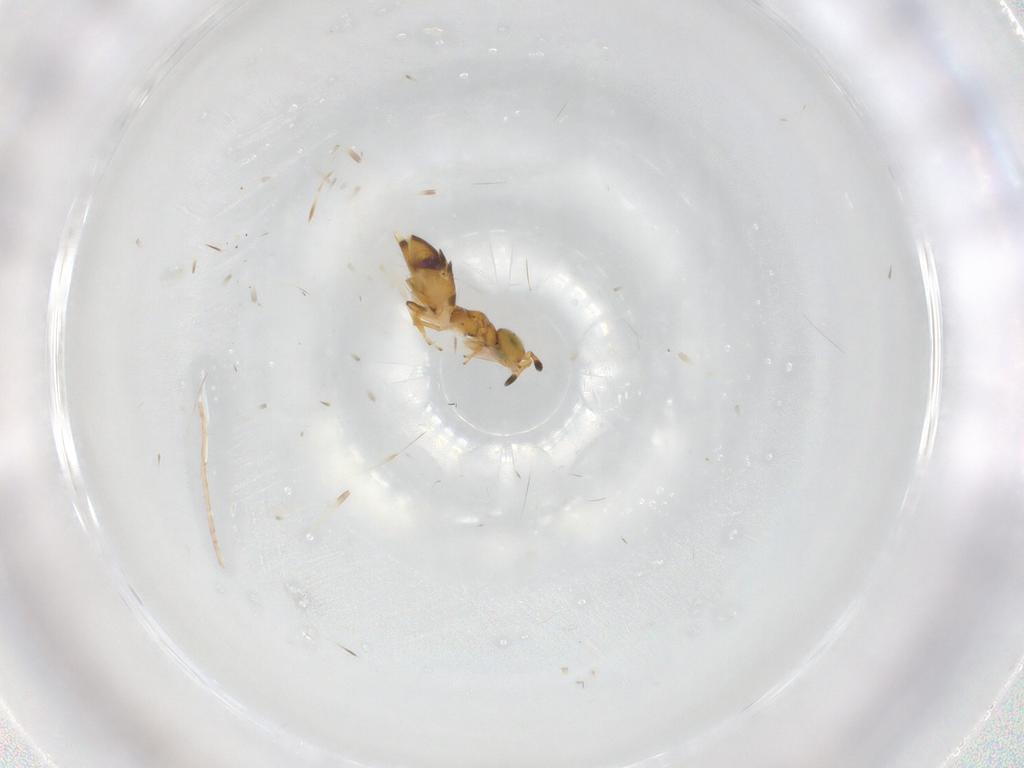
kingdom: Animalia
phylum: Arthropoda
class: Insecta
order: Hymenoptera
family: Encyrtidae
